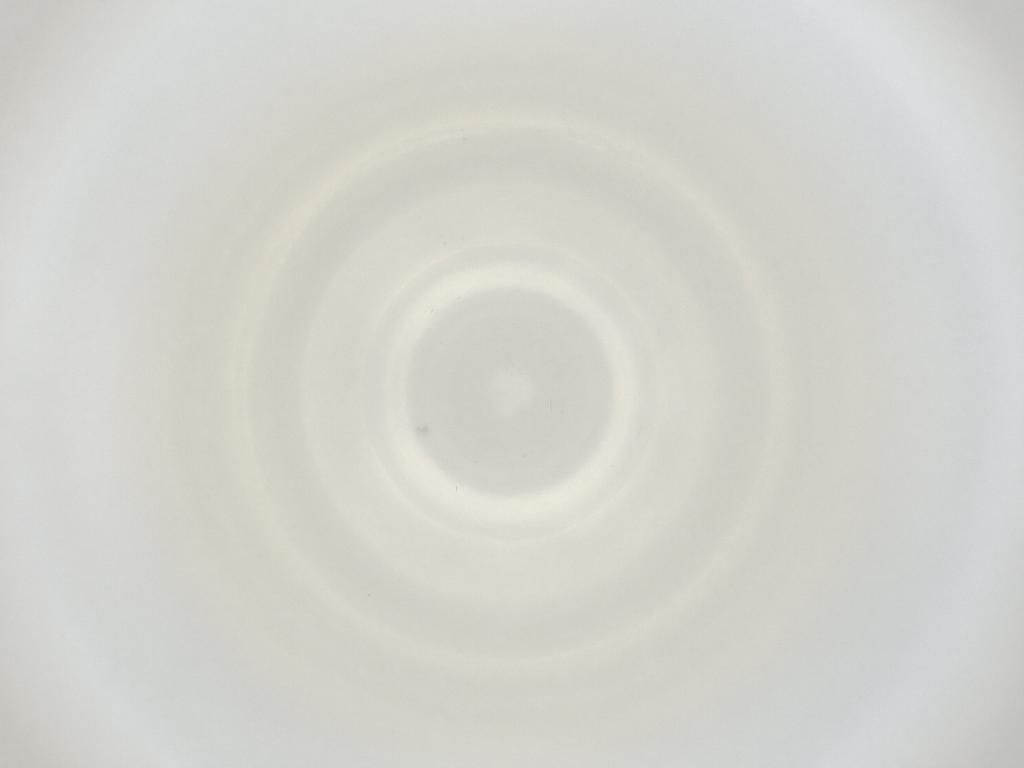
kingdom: Animalia
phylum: Arthropoda
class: Insecta
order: Diptera
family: Cecidomyiidae
